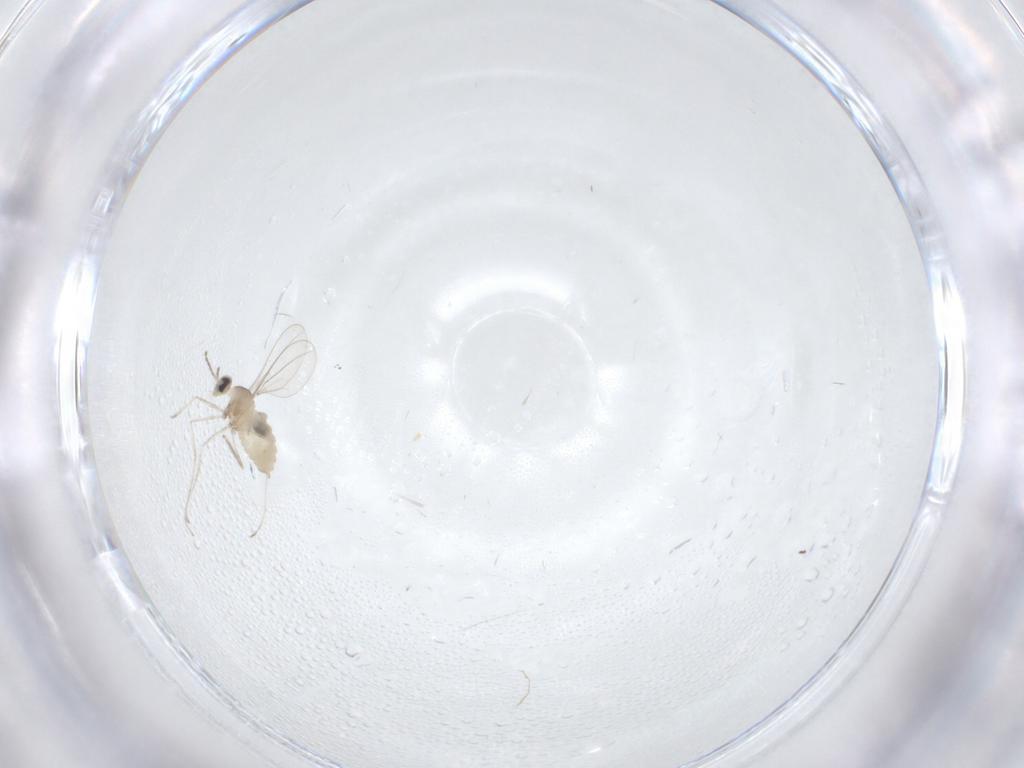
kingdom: Animalia
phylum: Arthropoda
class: Insecta
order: Diptera
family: Cecidomyiidae
